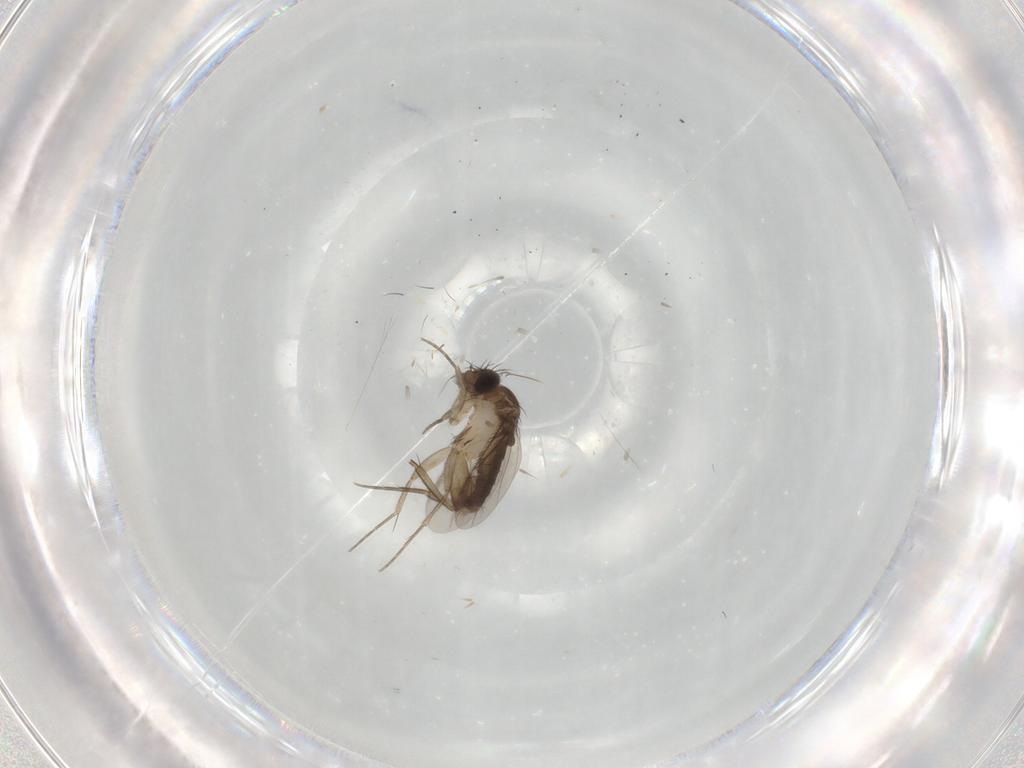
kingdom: Animalia
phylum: Arthropoda
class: Insecta
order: Diptera
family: Phoridae
